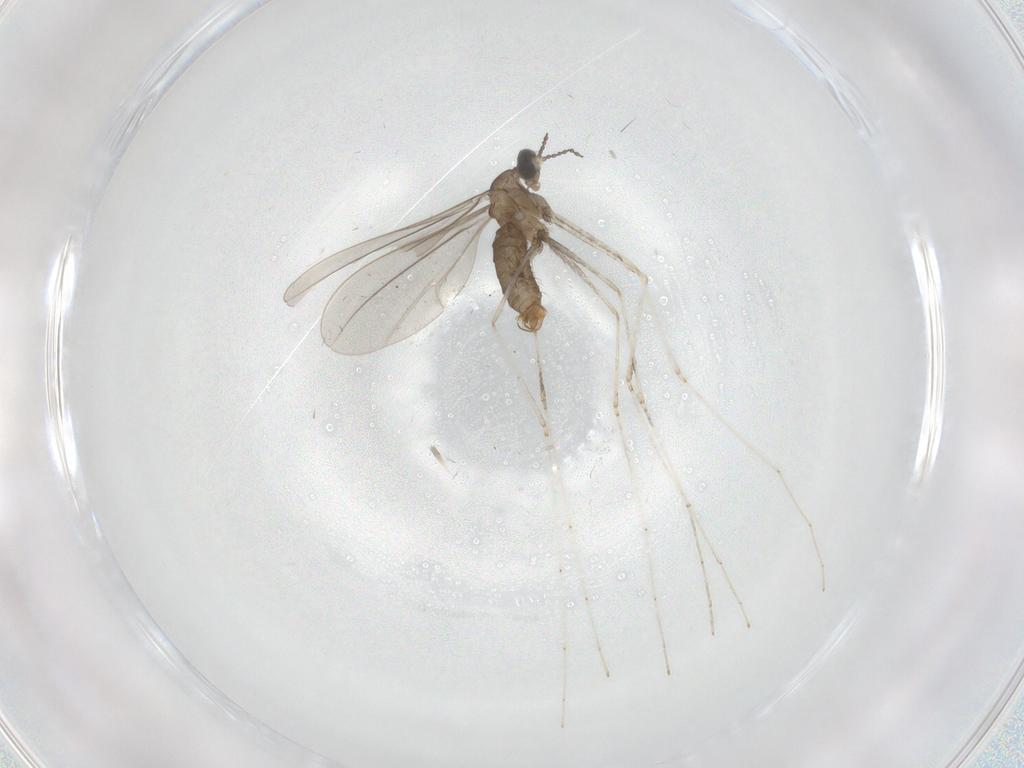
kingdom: Animalia
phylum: Arthropoda
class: Insecta
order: Diptera
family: Cecidomyiidae
